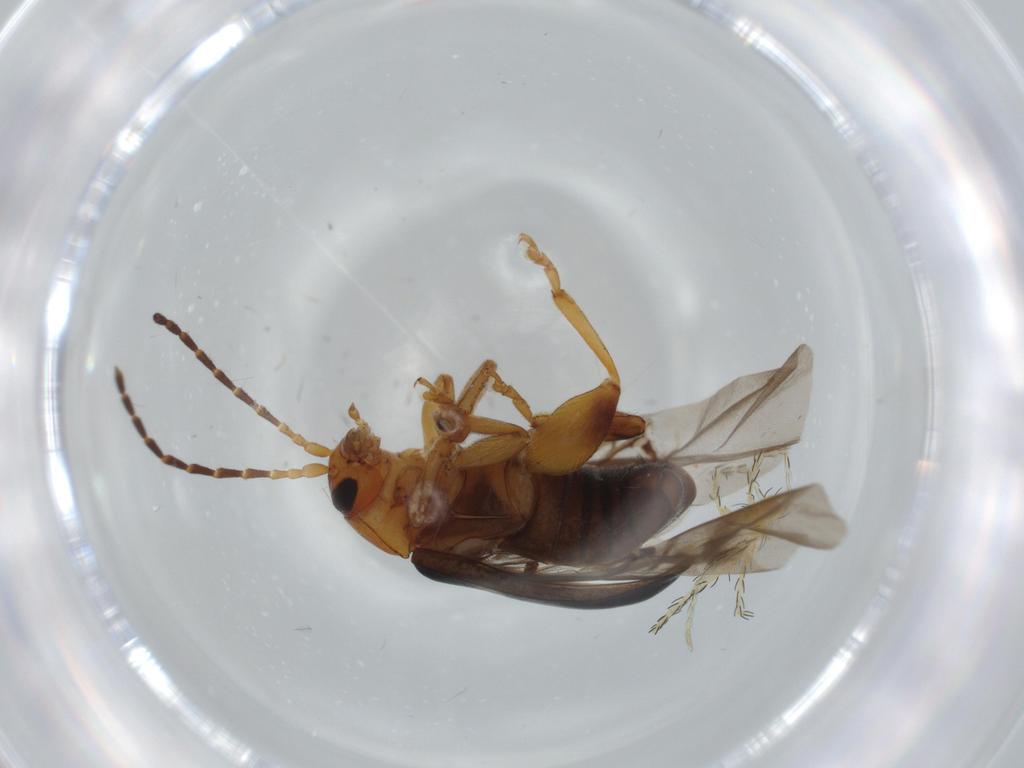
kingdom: Animalia
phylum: Arthropoda
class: Insecta
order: Coleoptera
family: Chrysomelidae
